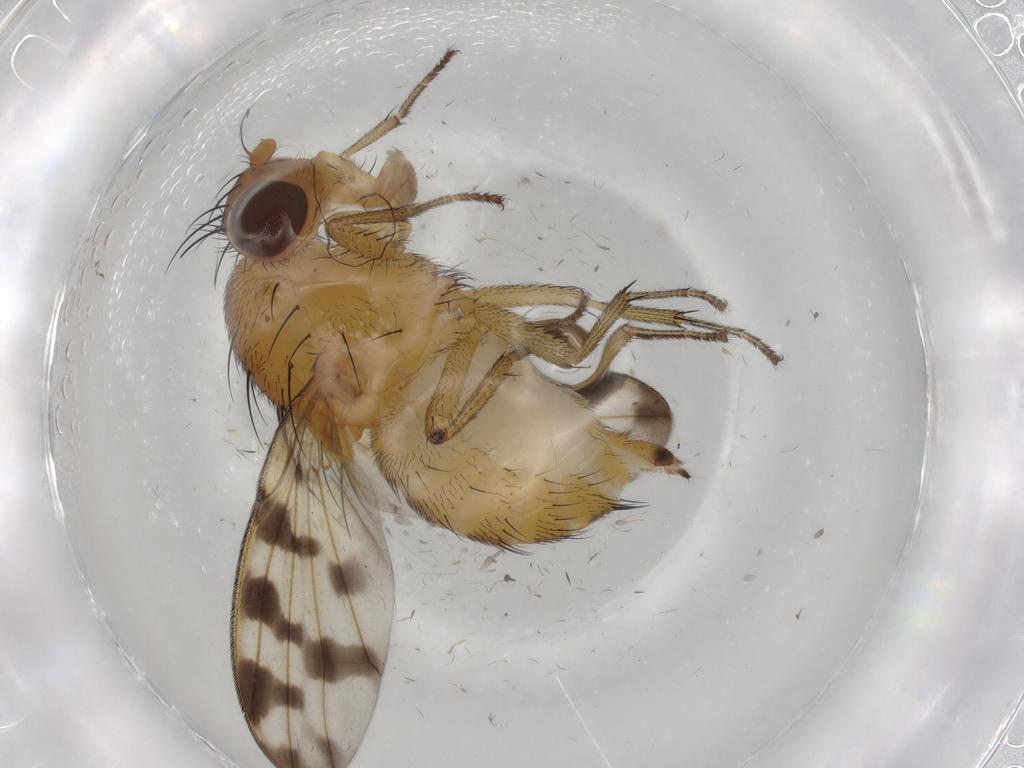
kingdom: Animalia
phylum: Arthropoda
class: Insecta
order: Diptera
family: Ceratopogonidae
